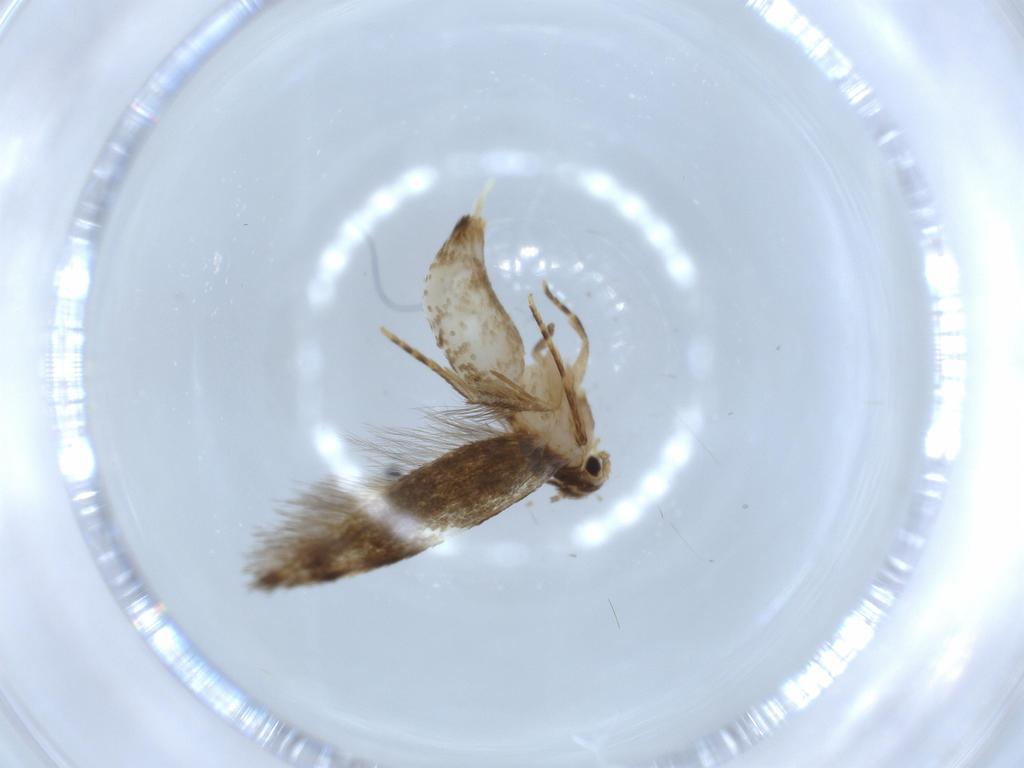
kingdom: Animalia
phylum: Arthropoda
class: Insecta
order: Lepidoptera
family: Tineidae
